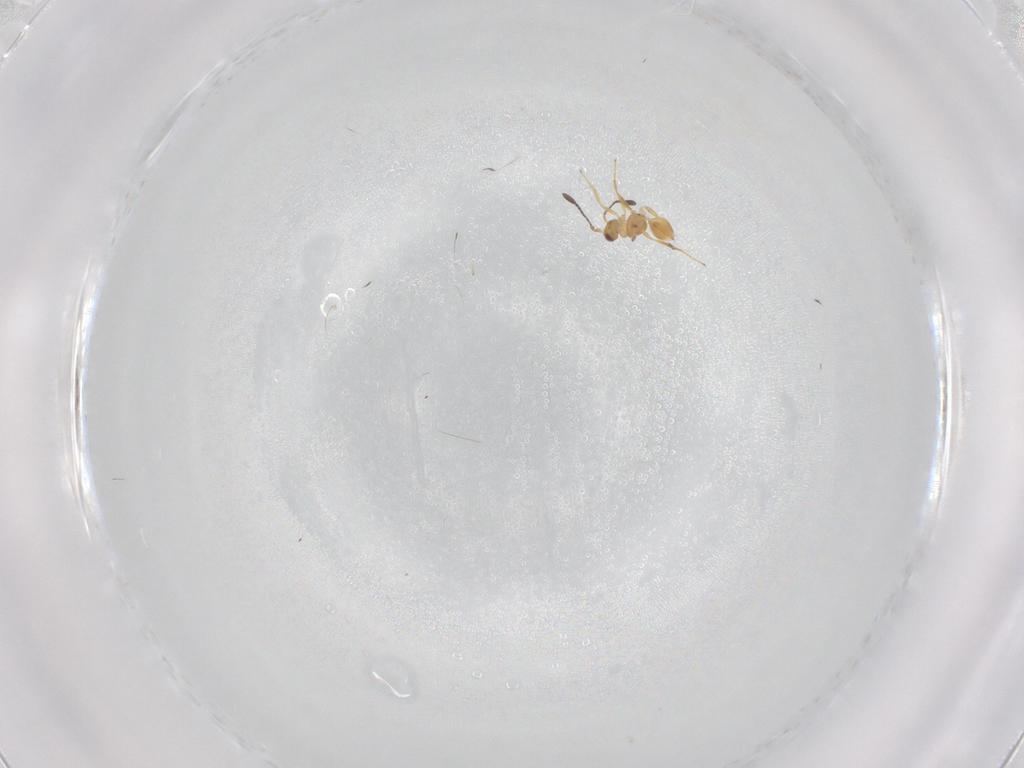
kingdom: Animalia
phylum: Arthropoda
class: Insecta
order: Hymenoptera
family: Mymaridae
